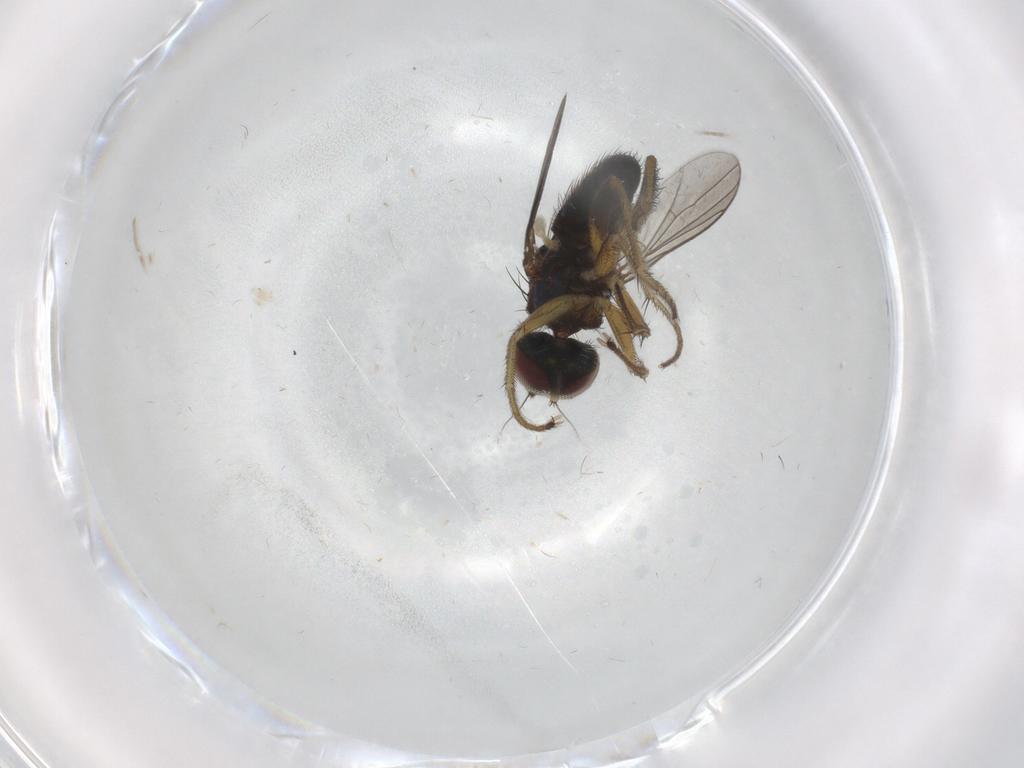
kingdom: Animalia
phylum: Arthropoda
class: Insecta
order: Diptera
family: Dolichopodidae
